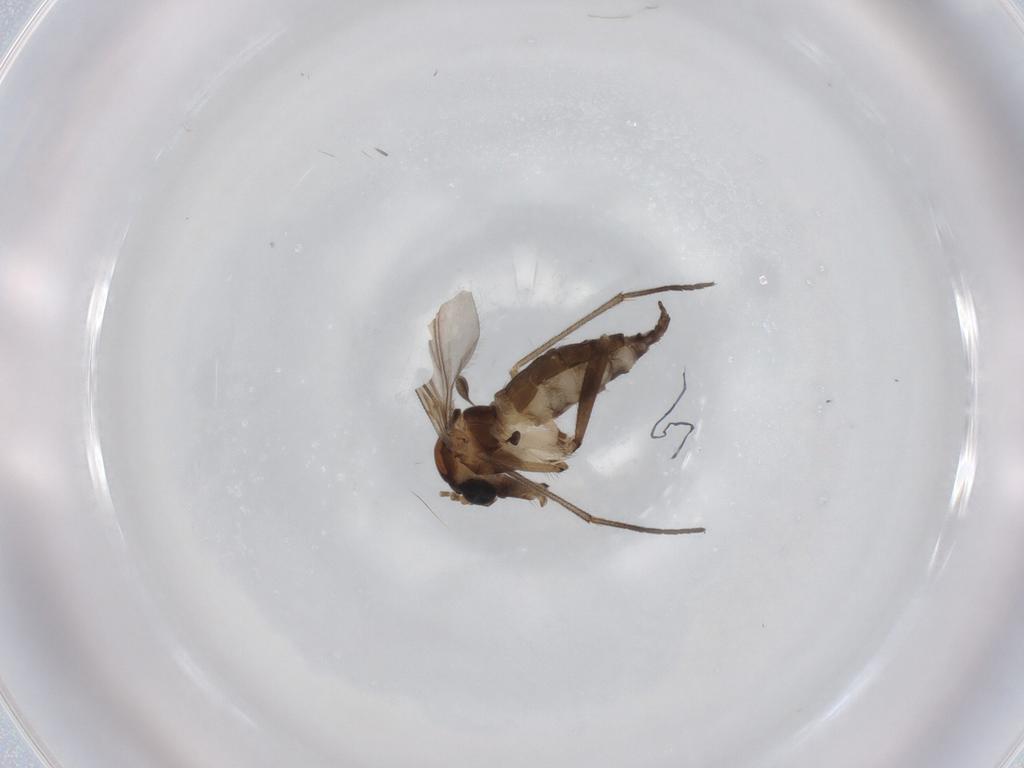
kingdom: Animalia
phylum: Arthropoda
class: Insecta
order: Diptera
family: Sciaridae
